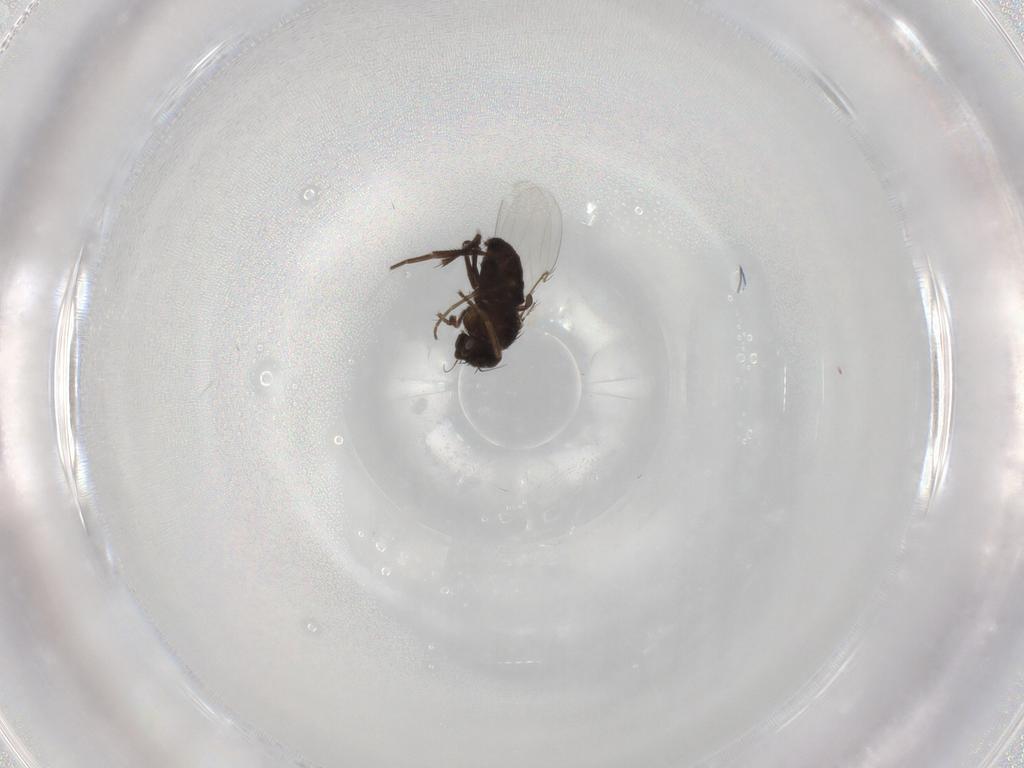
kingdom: Animalia
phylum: Arthropoda
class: Insecta
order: Diptera
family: Phoridae
